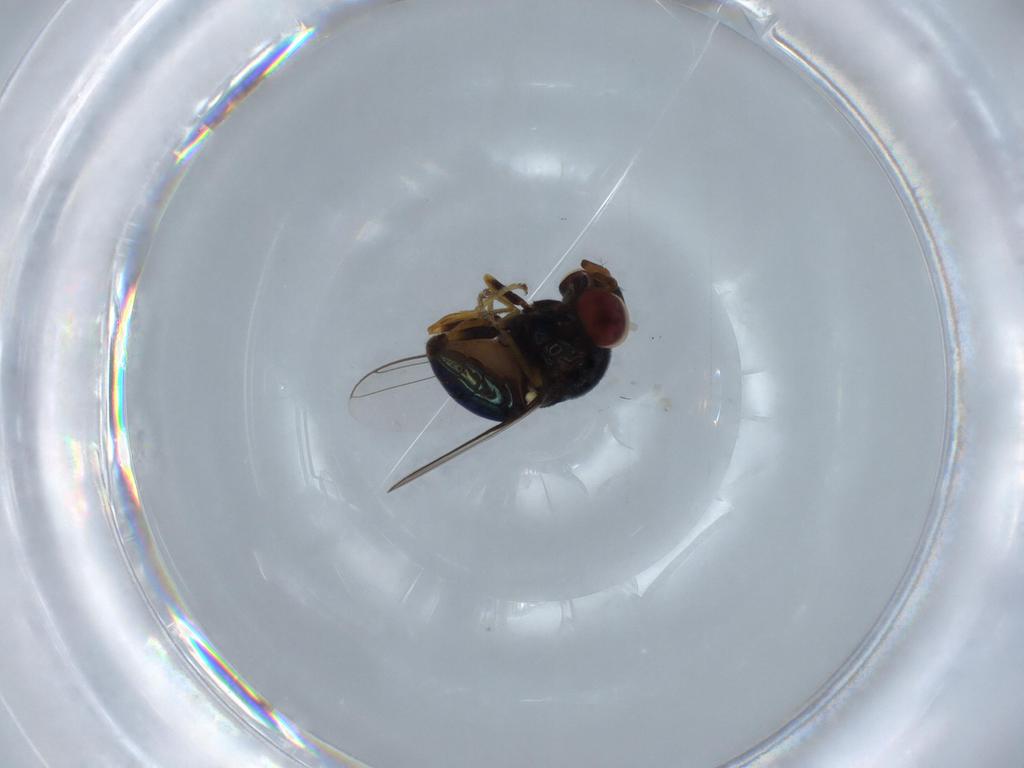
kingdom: Animalia
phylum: Arthropoda
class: Insecta
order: Diptera
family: Chloropidae
